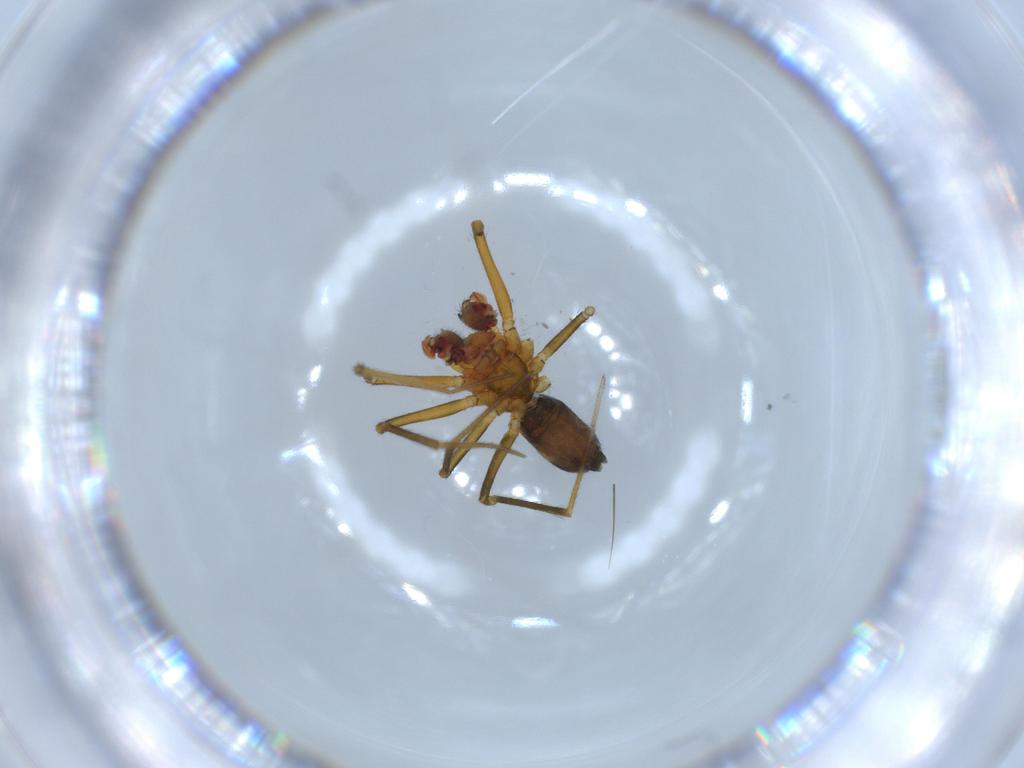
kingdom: Animalia
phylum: Arthropoda
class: Arachnida
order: Araneae
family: Linyphiidae
